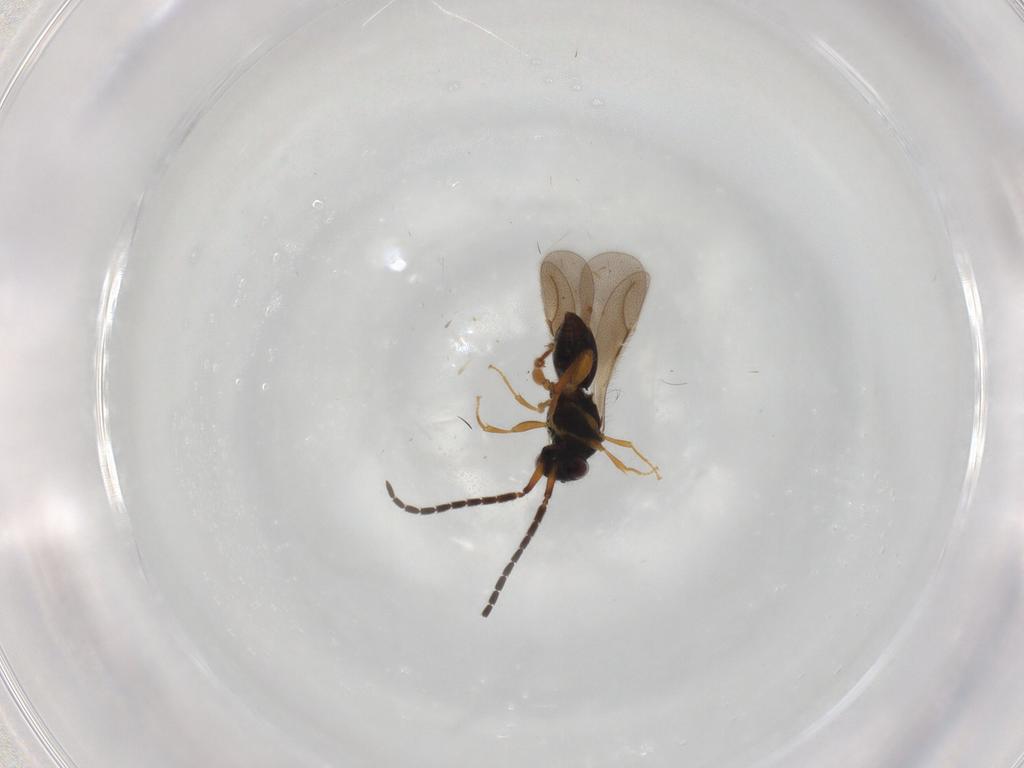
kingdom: Animalia
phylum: Arthropoda
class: Insecta
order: Hymenoptera
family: Ceraphronidae
